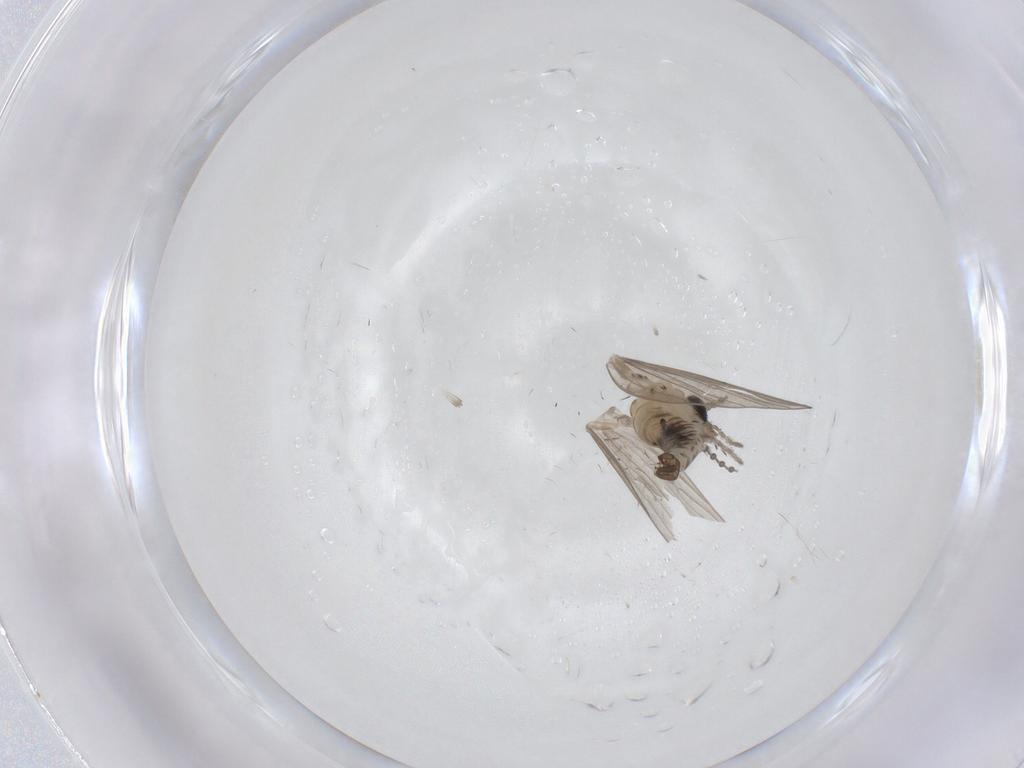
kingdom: Animalia
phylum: Arthropoda
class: Insecta
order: Diptera
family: Psychodidae
